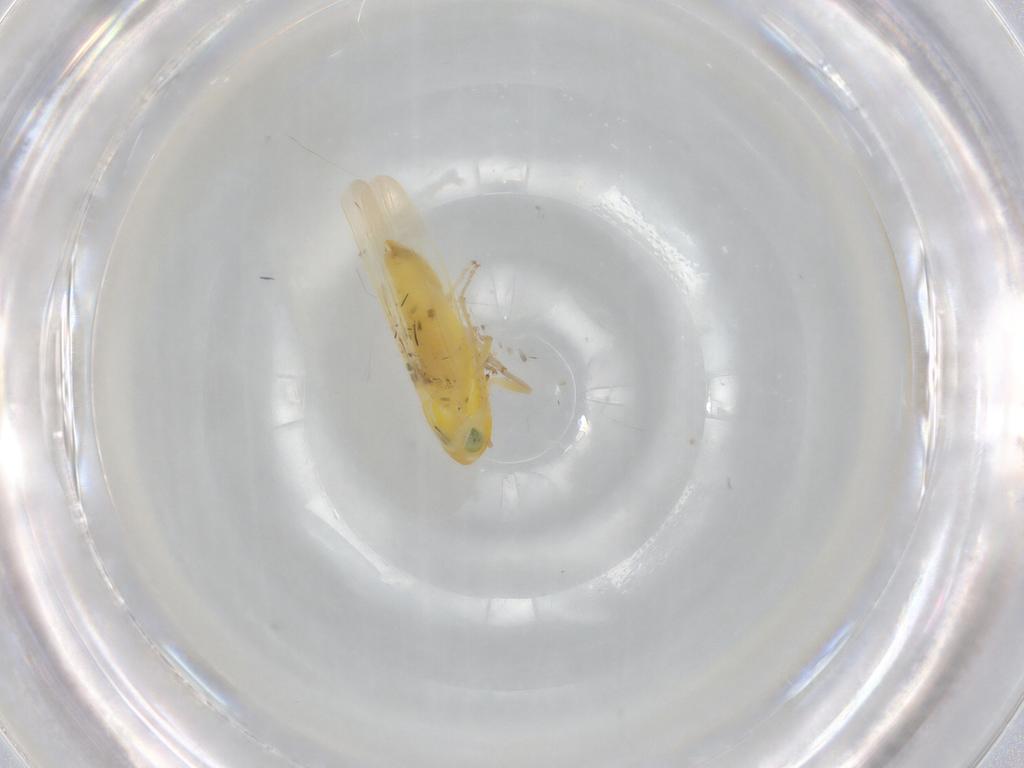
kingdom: Animalia
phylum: Arthropoda
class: Insecta
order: Hemiptera
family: Cicadellidae
